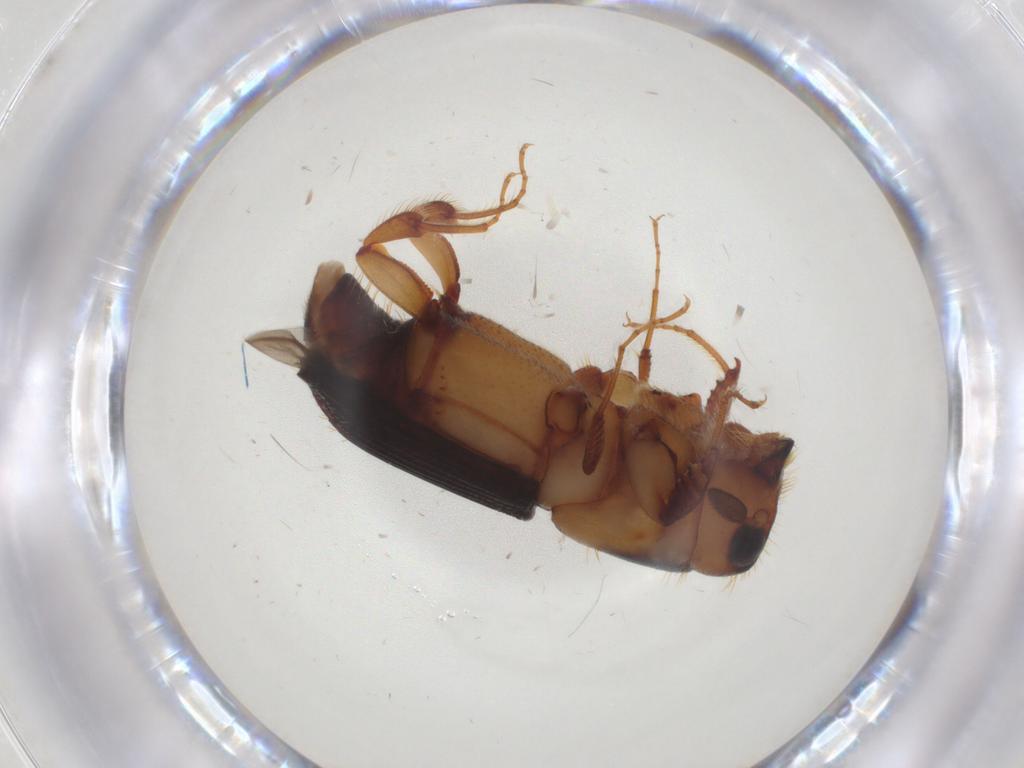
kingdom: Animalia
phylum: Arthropoda
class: Insecta
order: Coleoptera
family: Curculionidae
